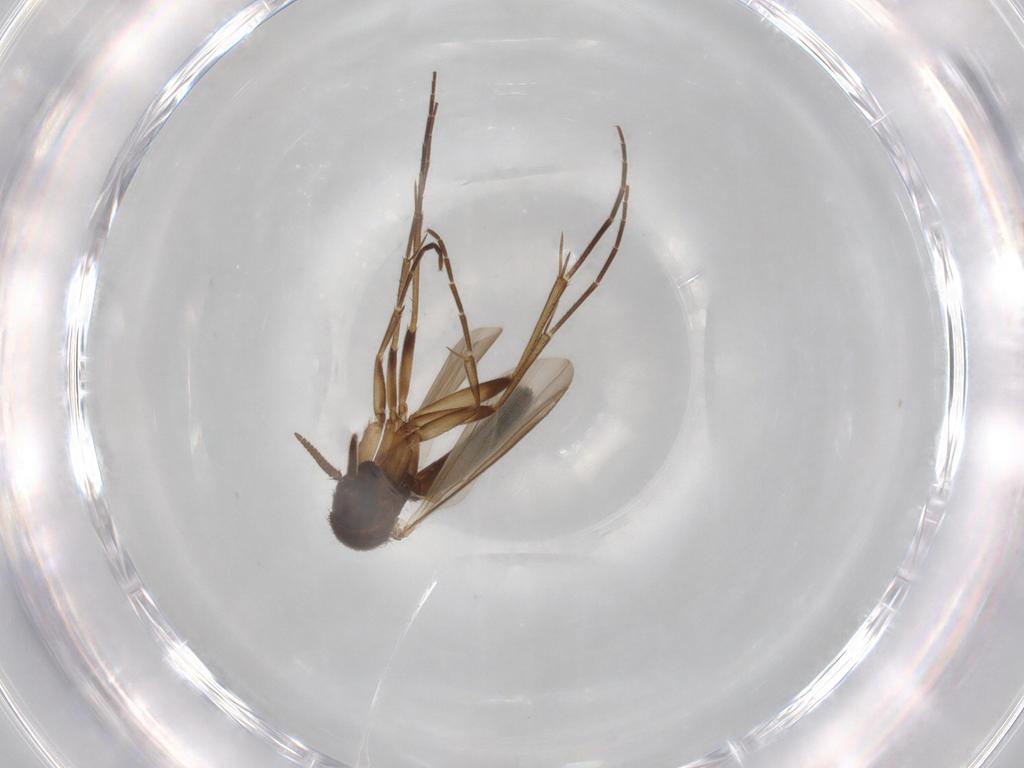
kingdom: Animalia
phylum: Arthropoda
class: Insecta
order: Diptera
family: Mycetophilidae
